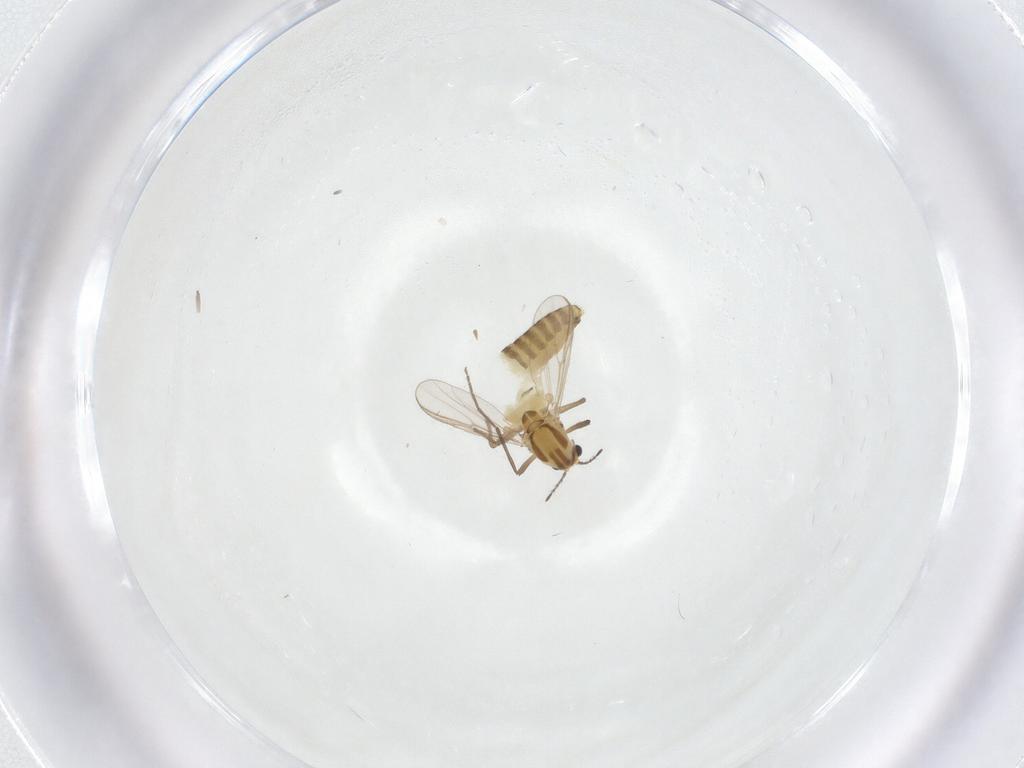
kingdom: Animalia
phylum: Arthropoda
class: Insecta
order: Diptera
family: Chironomidae
